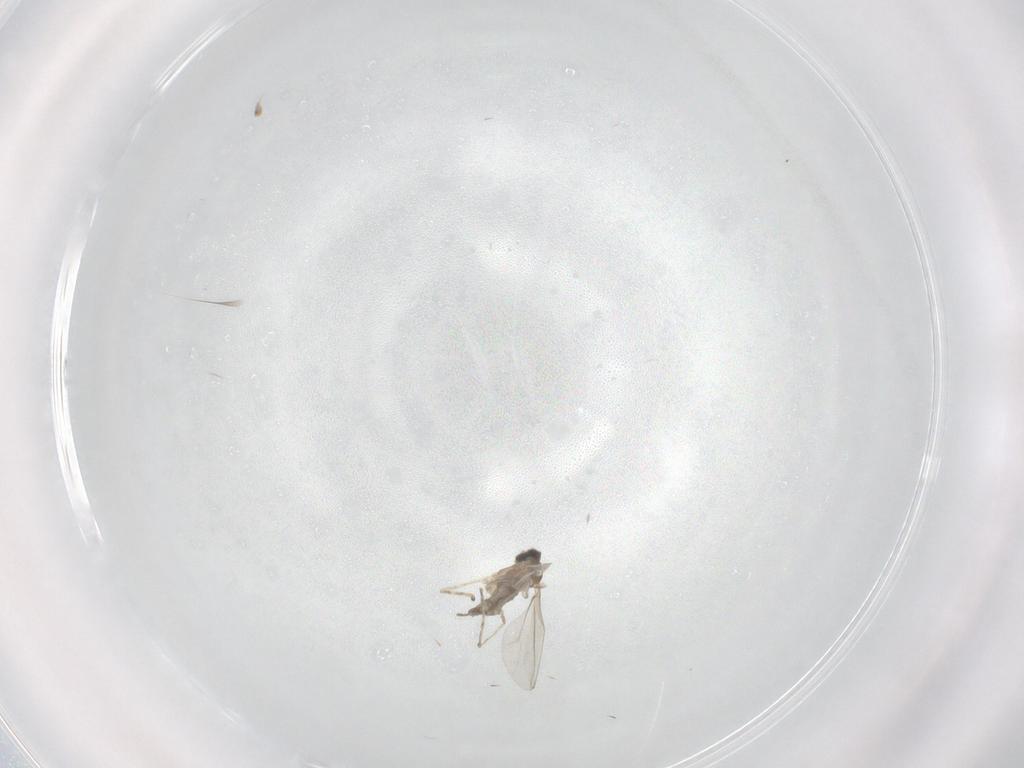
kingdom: Animalia
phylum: Arthropoda
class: Insecta
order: Diptera
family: Cecidomyiidae
